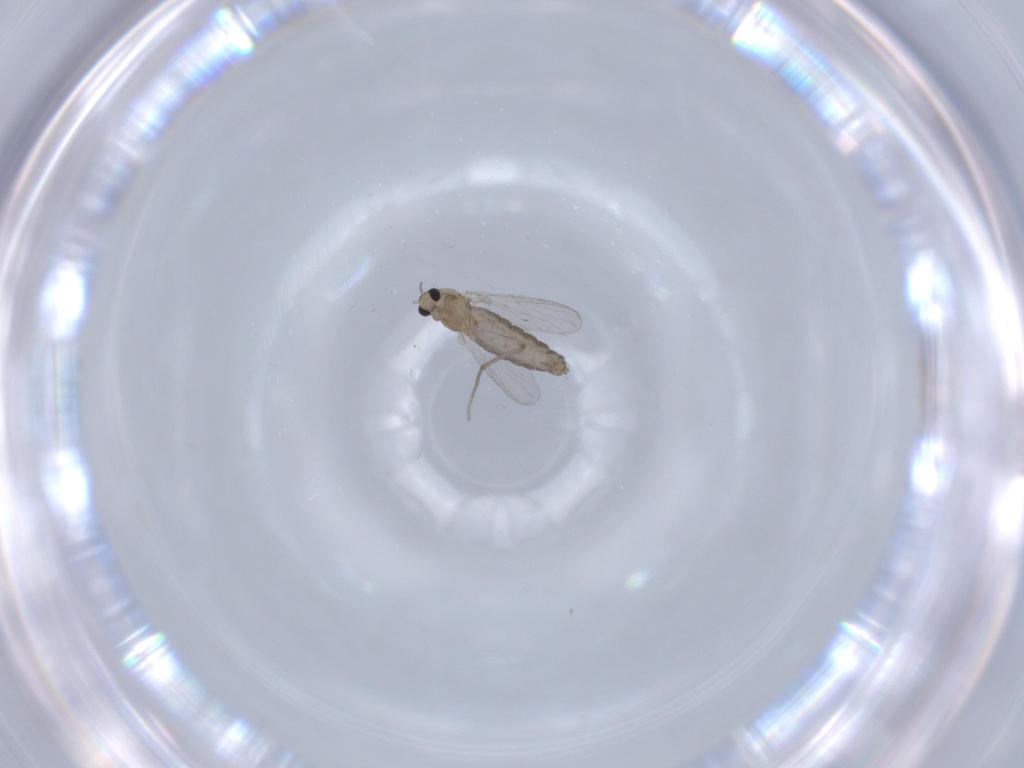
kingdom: Animalia
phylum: Arthropoda
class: Insecta
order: Diptera
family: Chironomidae
